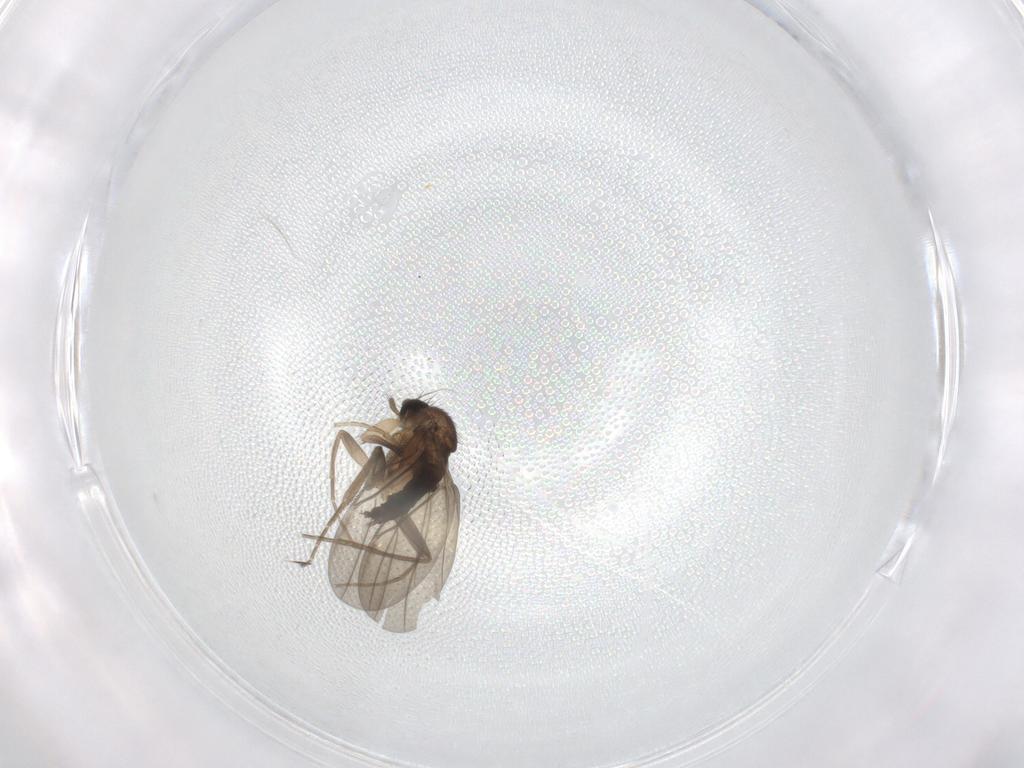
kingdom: Animalia
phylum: Arthropoda
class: Insecta
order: Diptera
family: Phoridae
